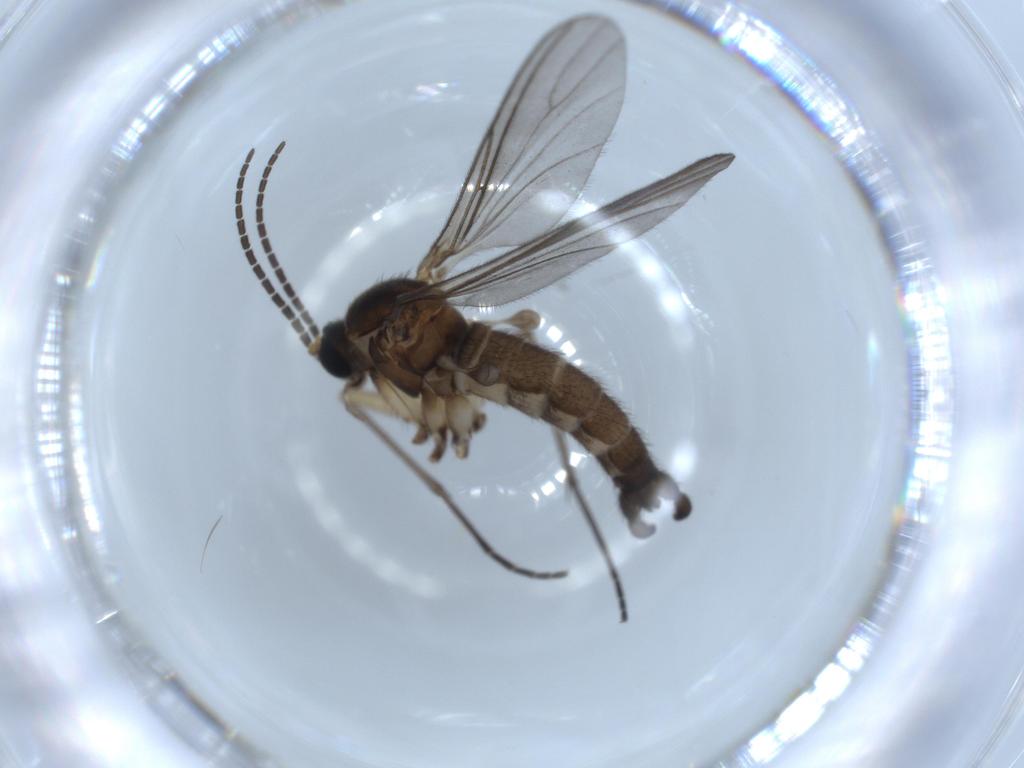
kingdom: Animalia
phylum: Arthropoda
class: Insecta
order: Diptera
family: Sciaridae
